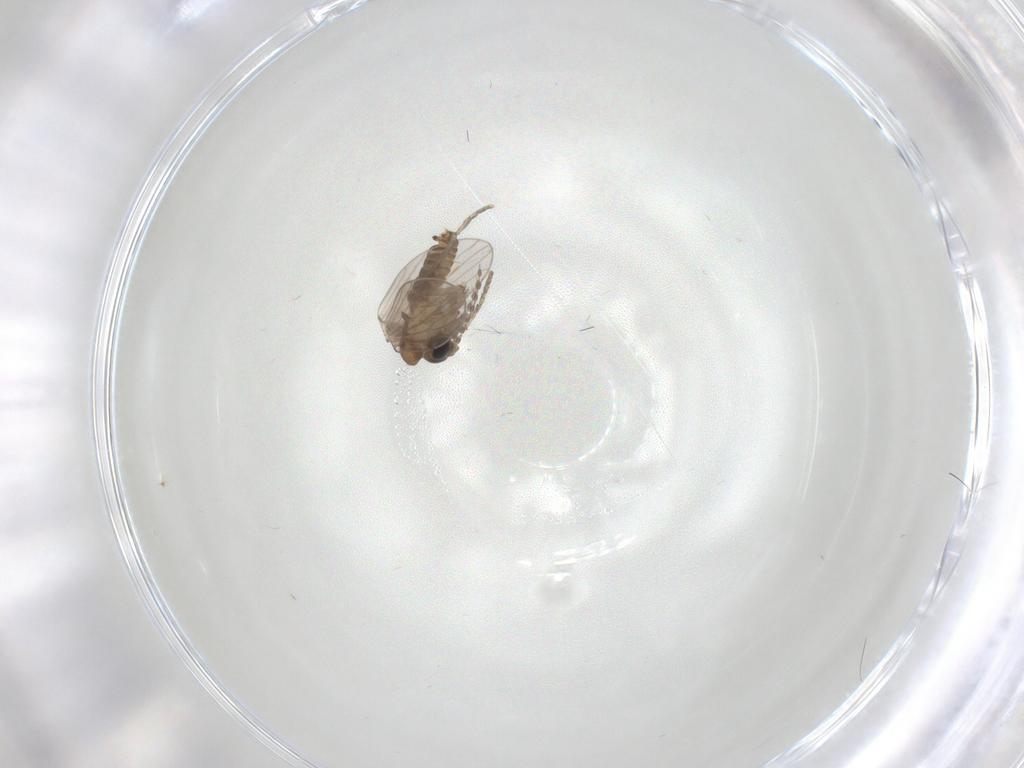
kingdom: Animalia
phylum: Arthropoda
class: Insecta
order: Diptera
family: Psychodidae
